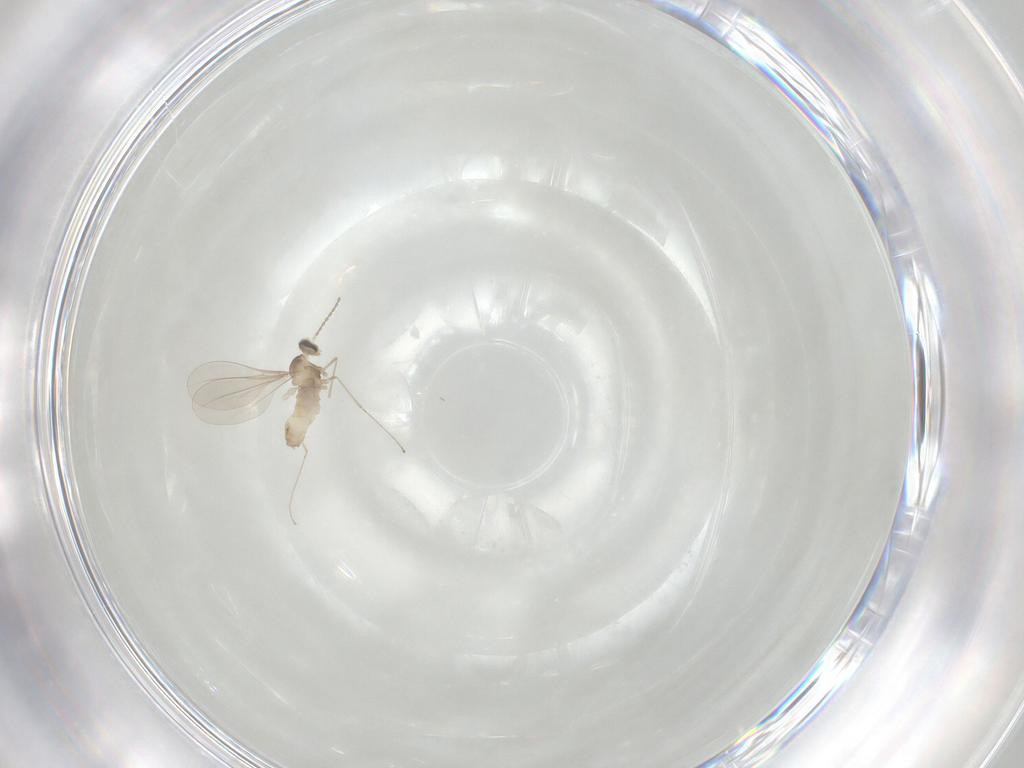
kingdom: Animalia
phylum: Arthropoda
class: Insecta
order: Diptera
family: Cecidomyiidae
